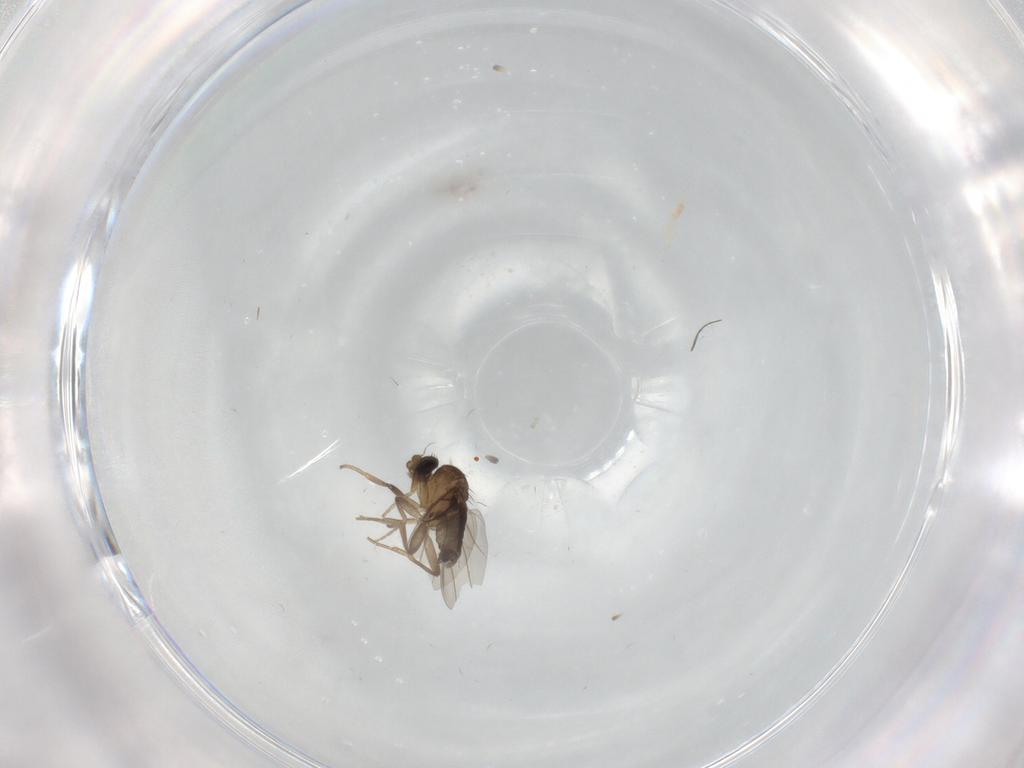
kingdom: Animalia
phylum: Arthropoda
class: Insecta
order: Diptera
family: Phoridae
